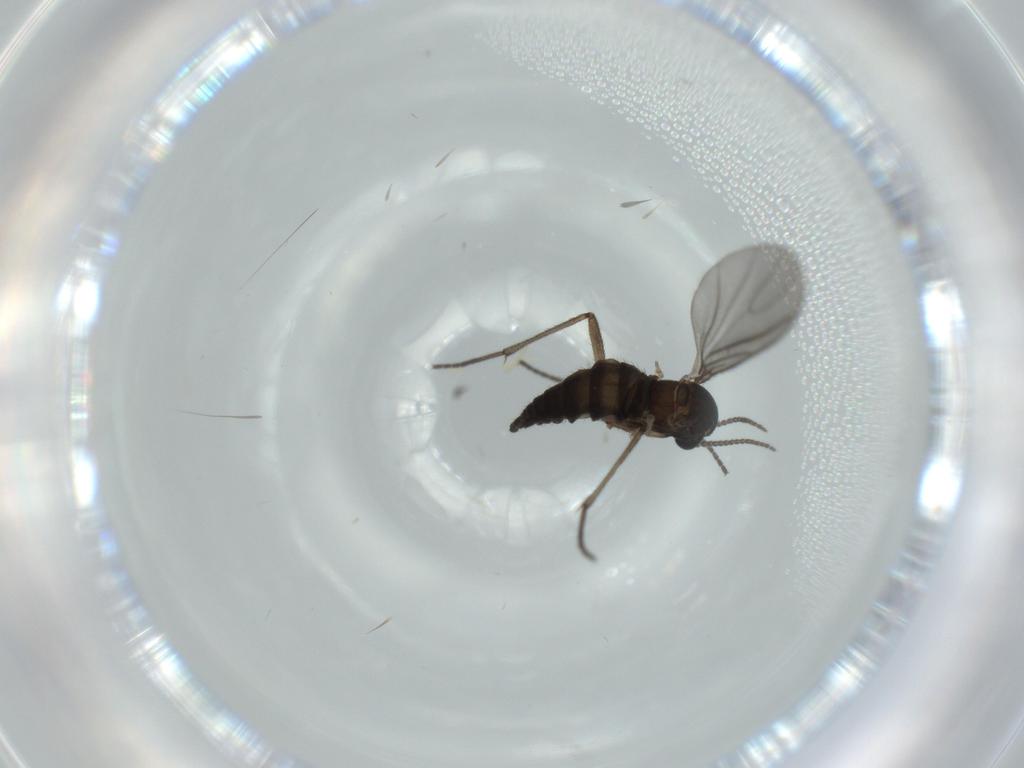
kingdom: Animalia
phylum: Arthropoda
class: Insecta
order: Diptera
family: Sciaridae
